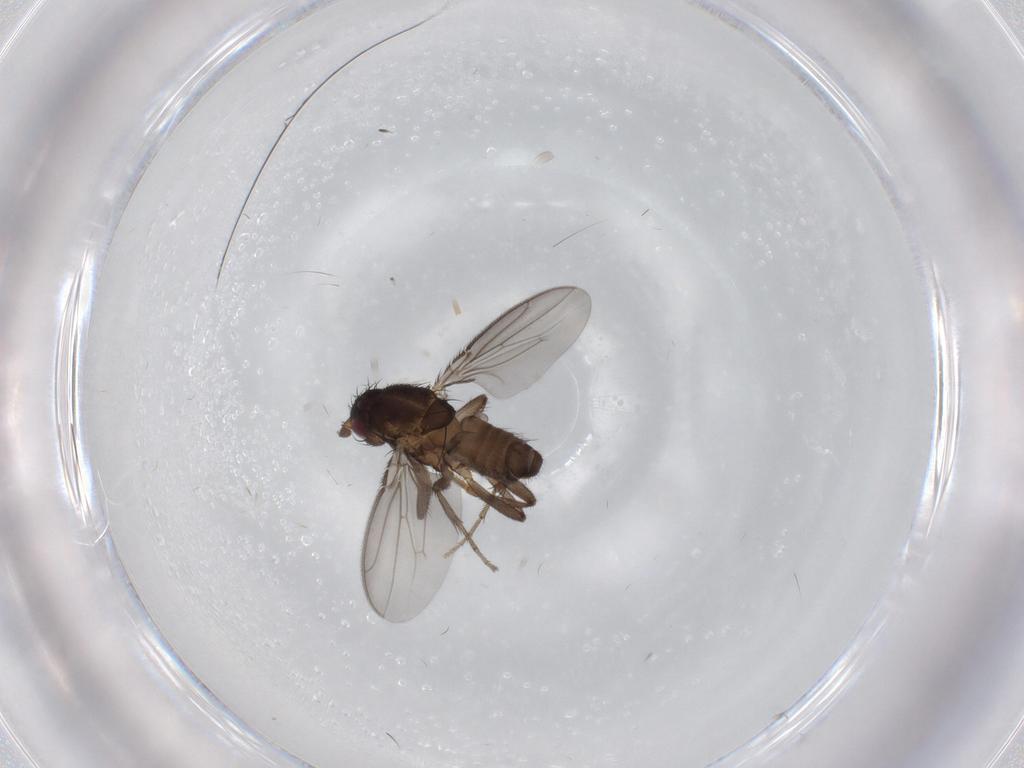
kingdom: Animalia
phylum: Arthropoda
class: Insecta
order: Diptera
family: Sphaeroceridae
